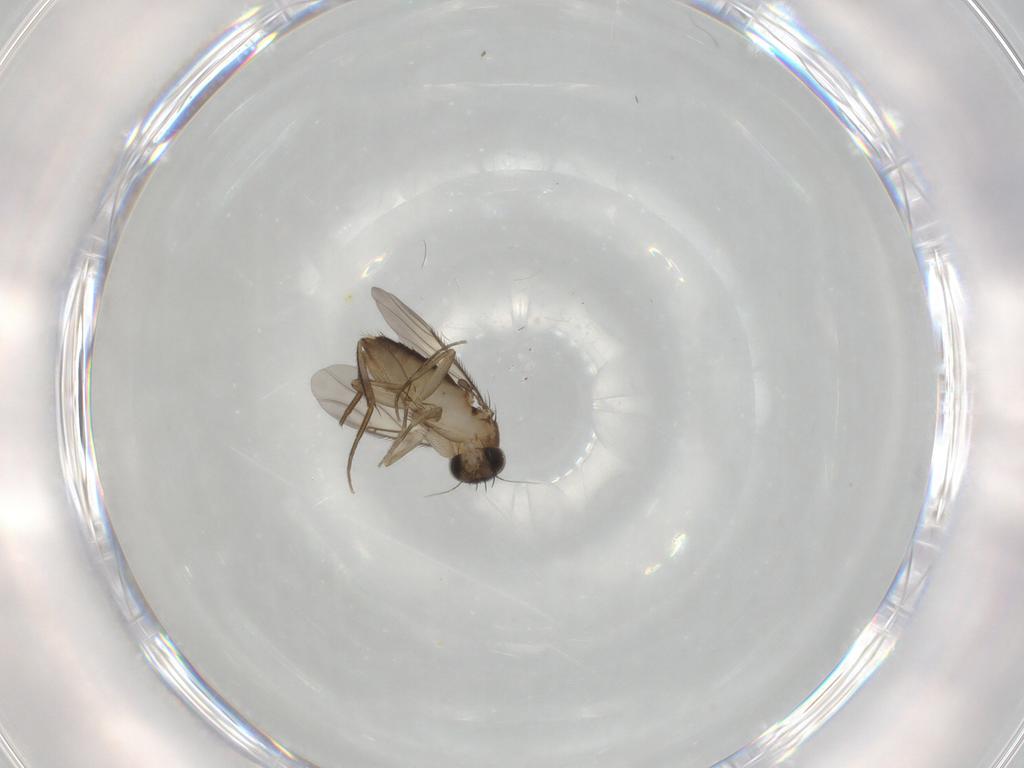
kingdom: Animalia
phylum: Arthropoda
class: Insecta
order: Diptera
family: Phoridae
